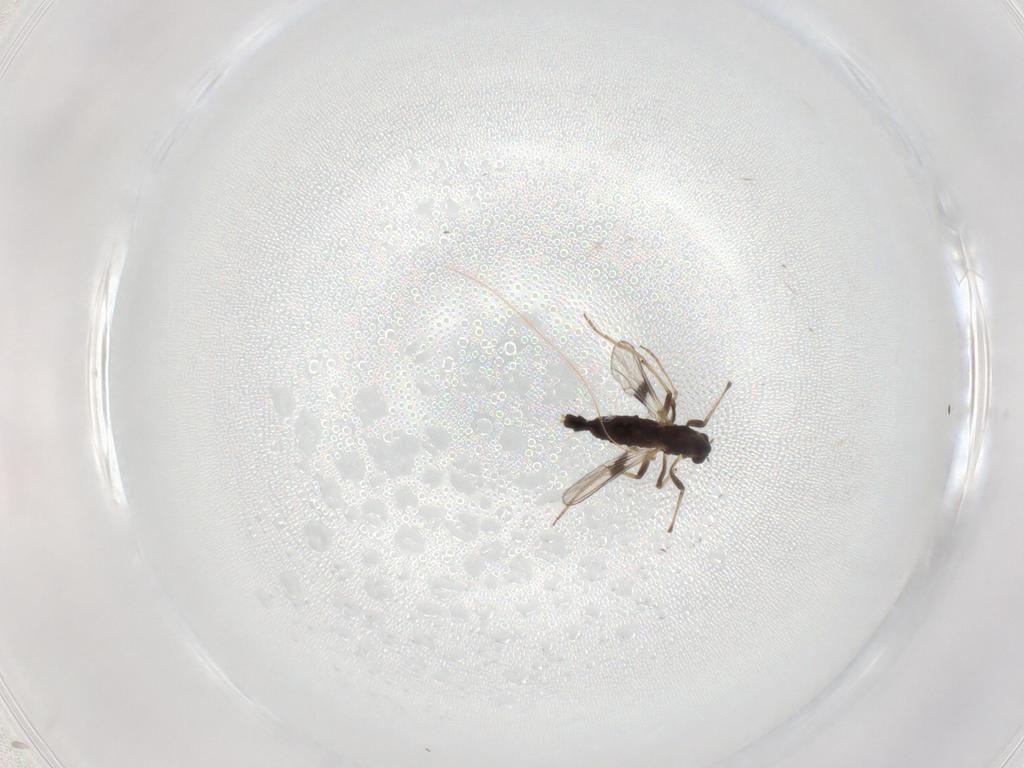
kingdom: Animalia
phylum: Arthropoda
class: Insecta
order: Diptera
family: Chironomidae
